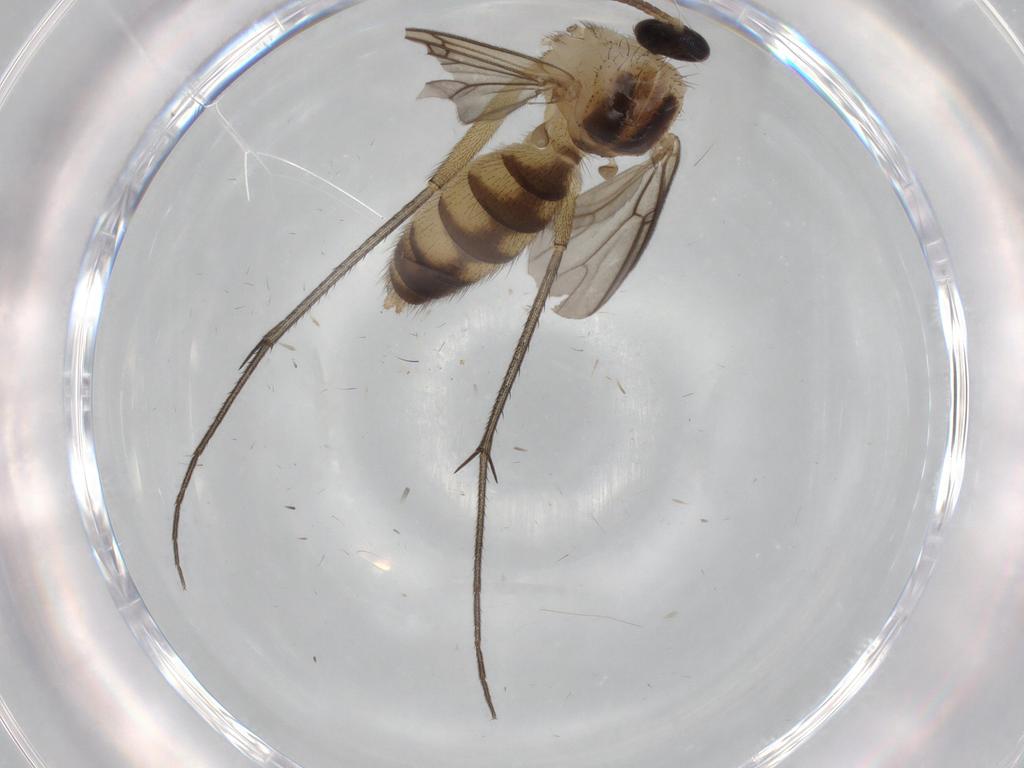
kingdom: Animalia
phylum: Arthropoda
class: Insecta
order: Diptera
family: Mycetophilidae
